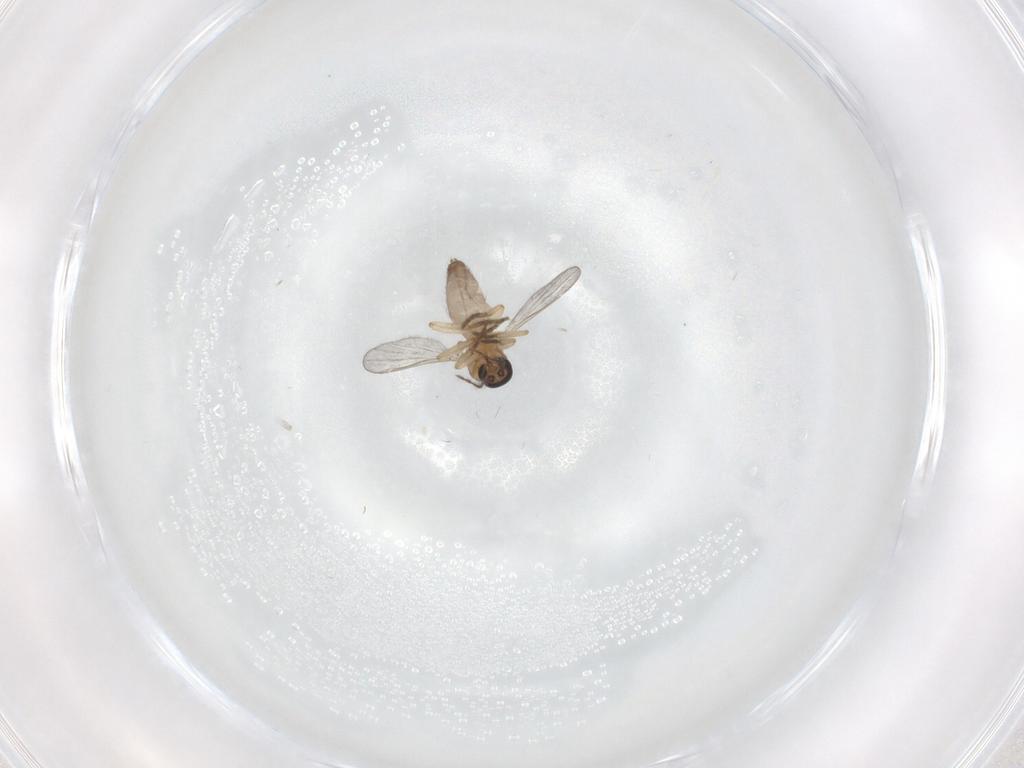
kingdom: Animalia
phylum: Arthropoda
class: Insecta
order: Diptera
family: Ceratopogonidae
